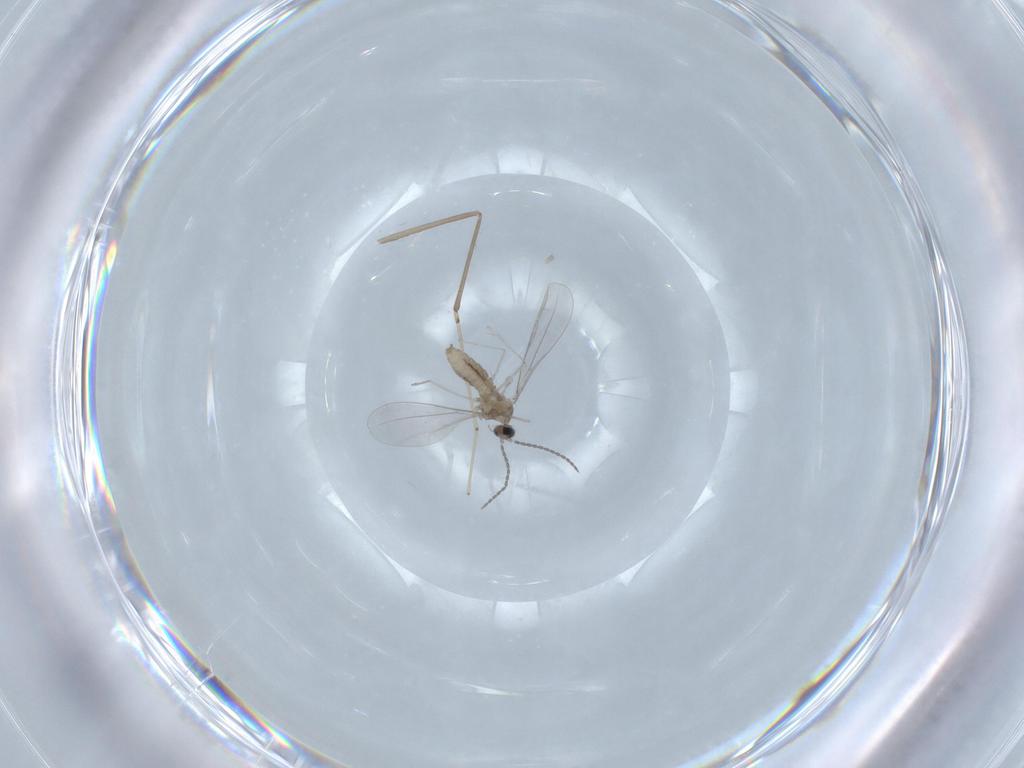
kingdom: Animalia
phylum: Arthropoda
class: Insecta
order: Diptera
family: Cecidomyiidae
